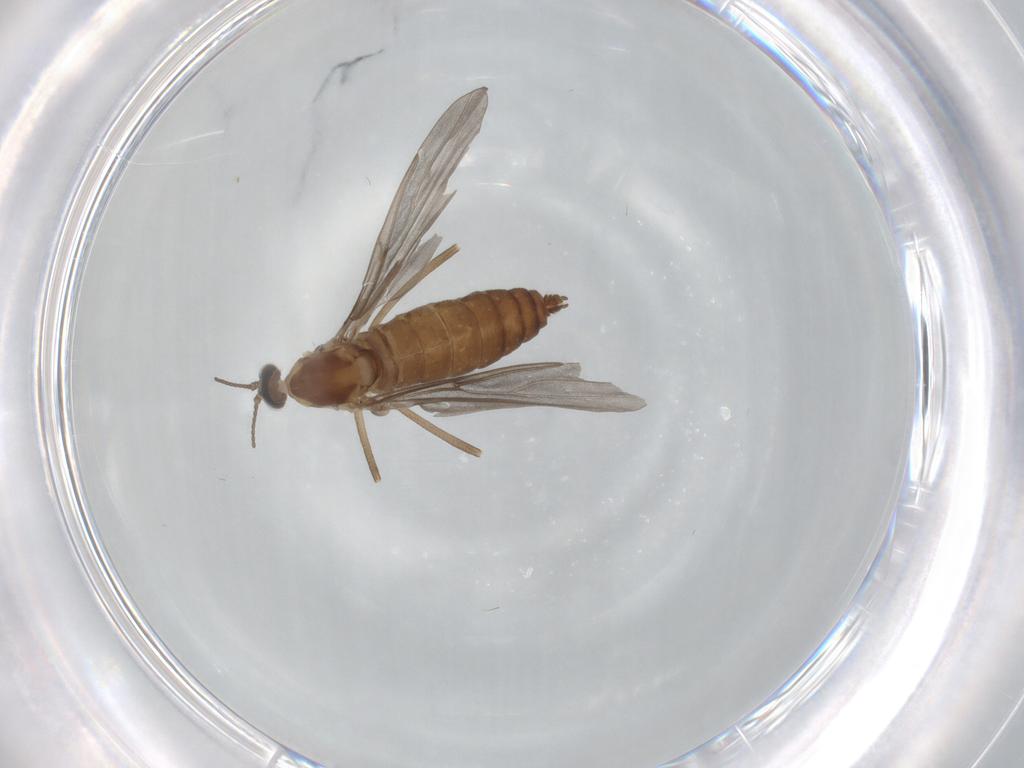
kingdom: Animalia
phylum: Arthropoda
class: Insecta
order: Diptera
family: Cecidomyiidae
